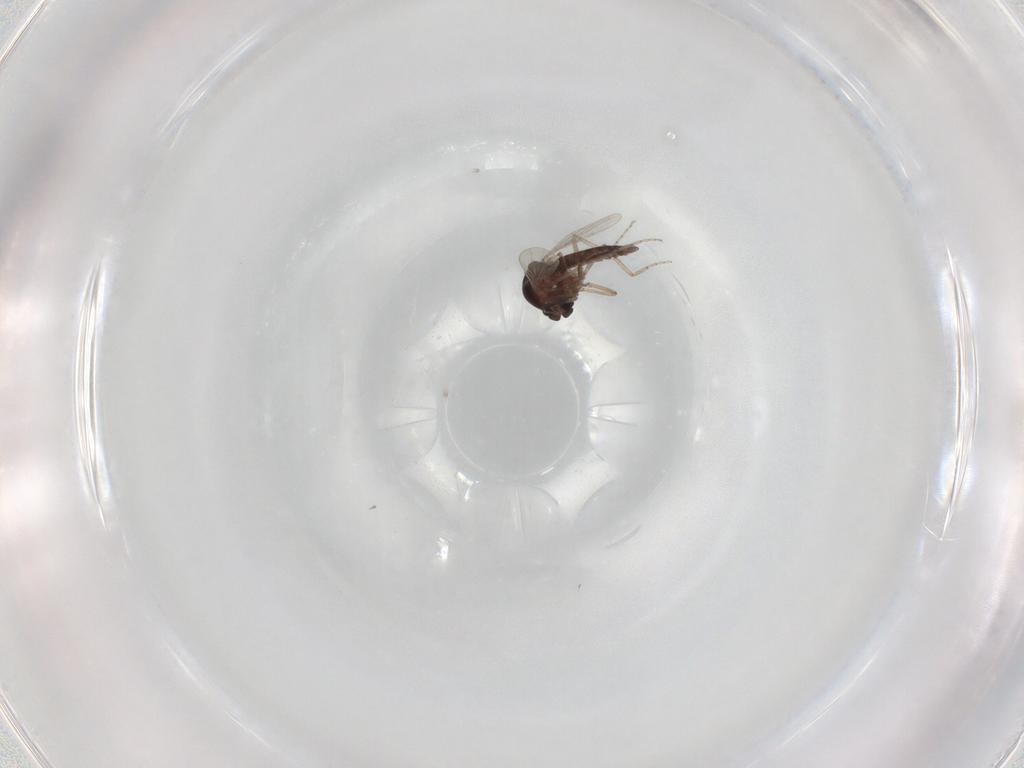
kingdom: Animalia
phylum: Arthropoda
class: Insecta
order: Diptera
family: Ceratopogonidae
